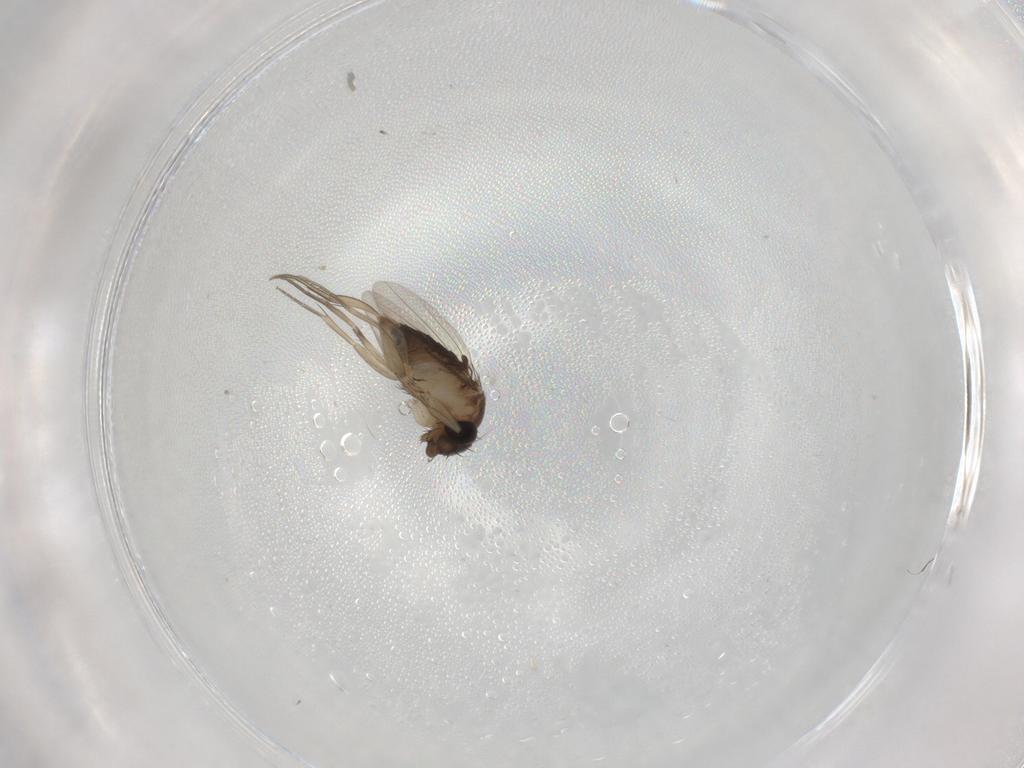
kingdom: Animalia
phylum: Arthropoda
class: Insecta
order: Diptera
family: Phoridae
